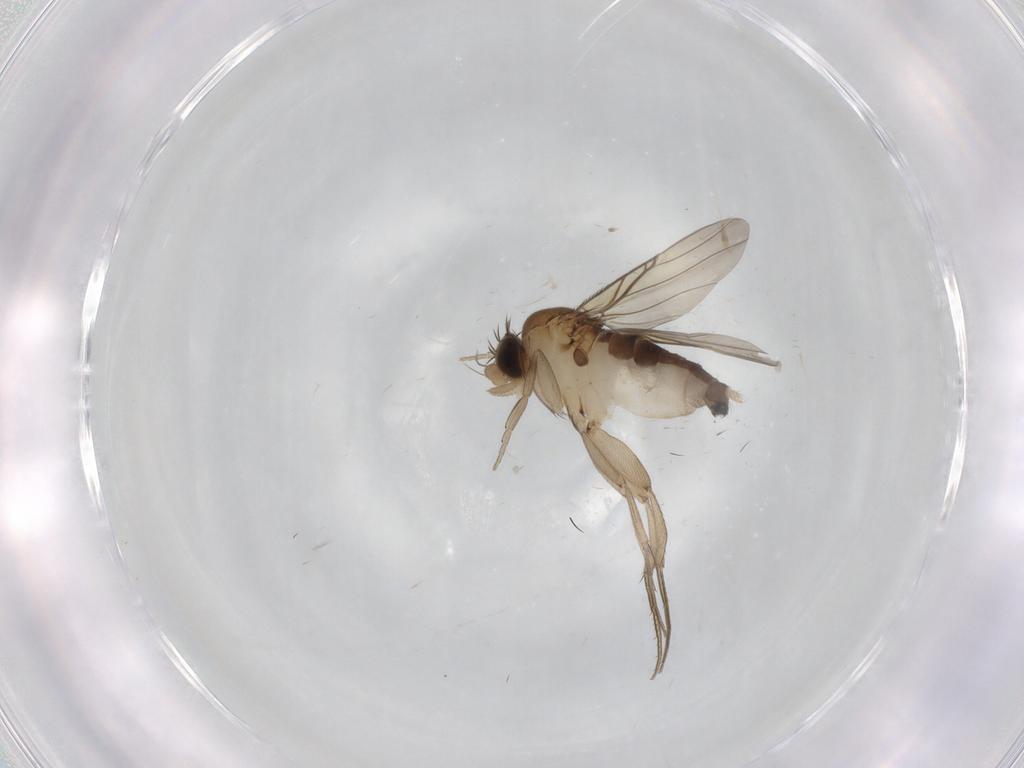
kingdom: Animalia
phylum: Arthropoda
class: Insecta
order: Diptera
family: Phoridae
